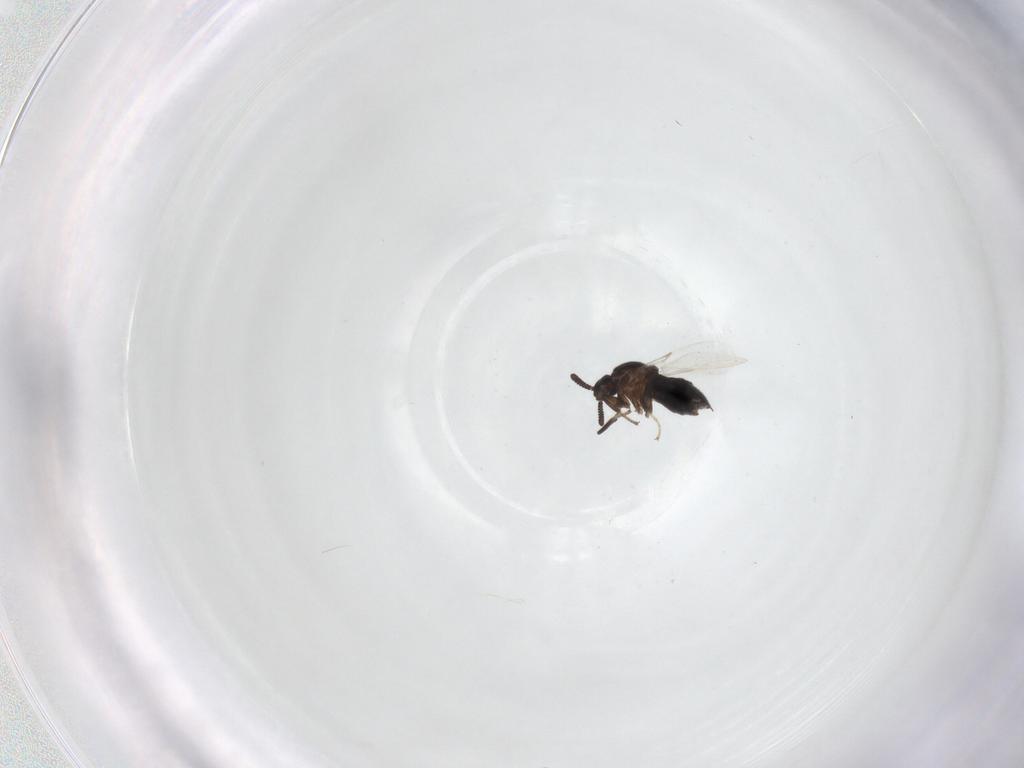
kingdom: Animalia
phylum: Arthropoda
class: Insecta
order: Diptera
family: Scatopsidae
